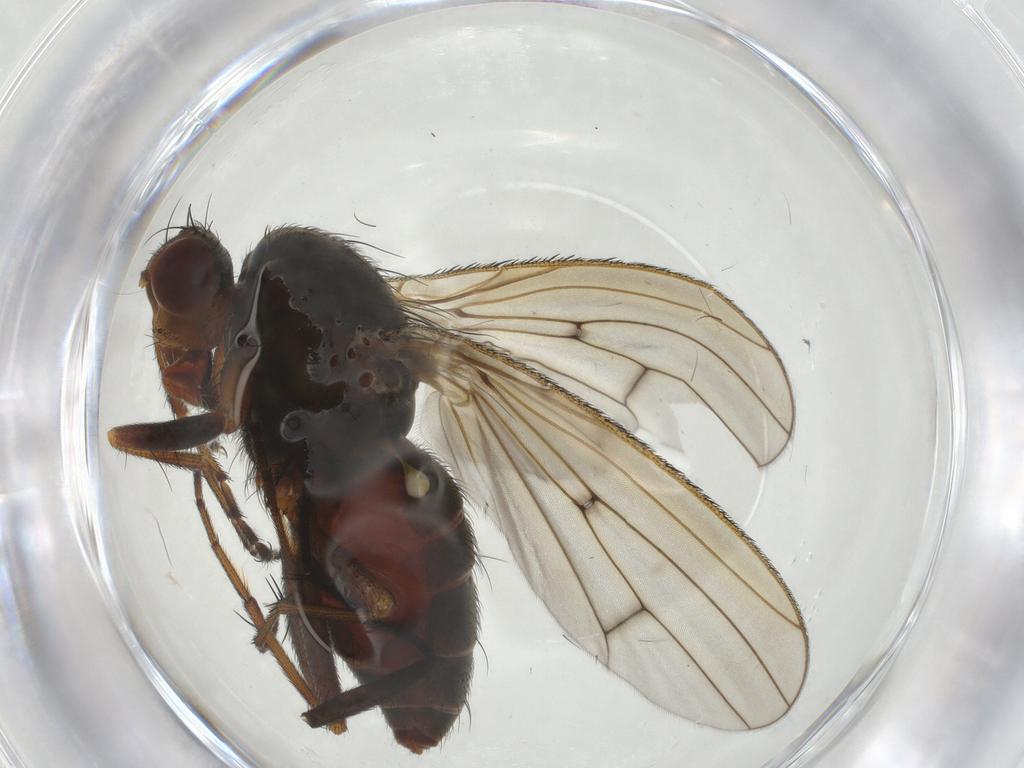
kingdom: Animalia
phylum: Arthropoda
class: Insecta
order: Diptera
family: Heleomyzidae
